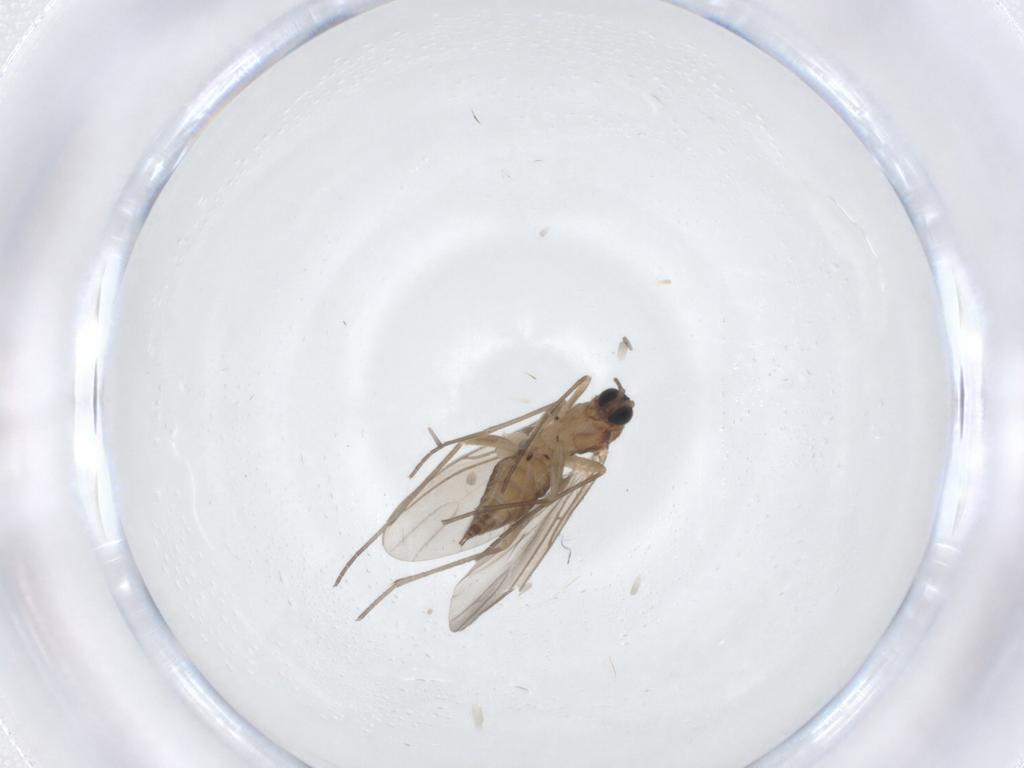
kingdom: Animalia
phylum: Arthropoda
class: Insecta
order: Diptera
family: Sciaridae
